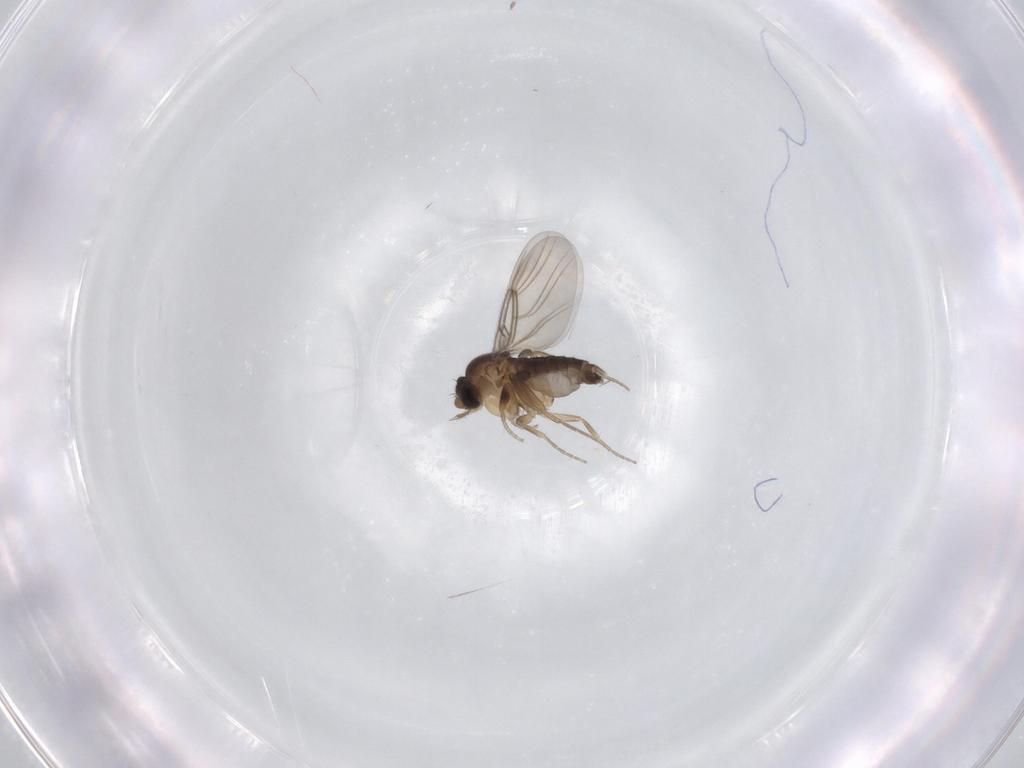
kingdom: Animalia
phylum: Arthropoda
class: Insecta
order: Diptera
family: Phoridae
